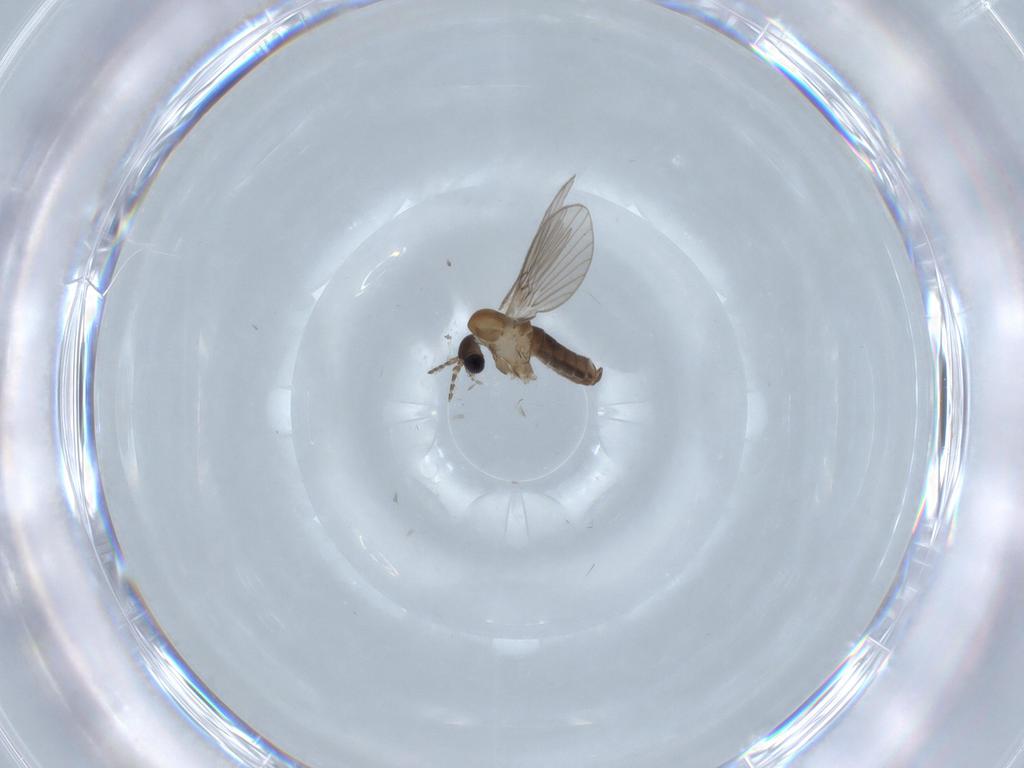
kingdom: Animalia
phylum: Arthropoda
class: Insecta
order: Diptera
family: Psychodidae
